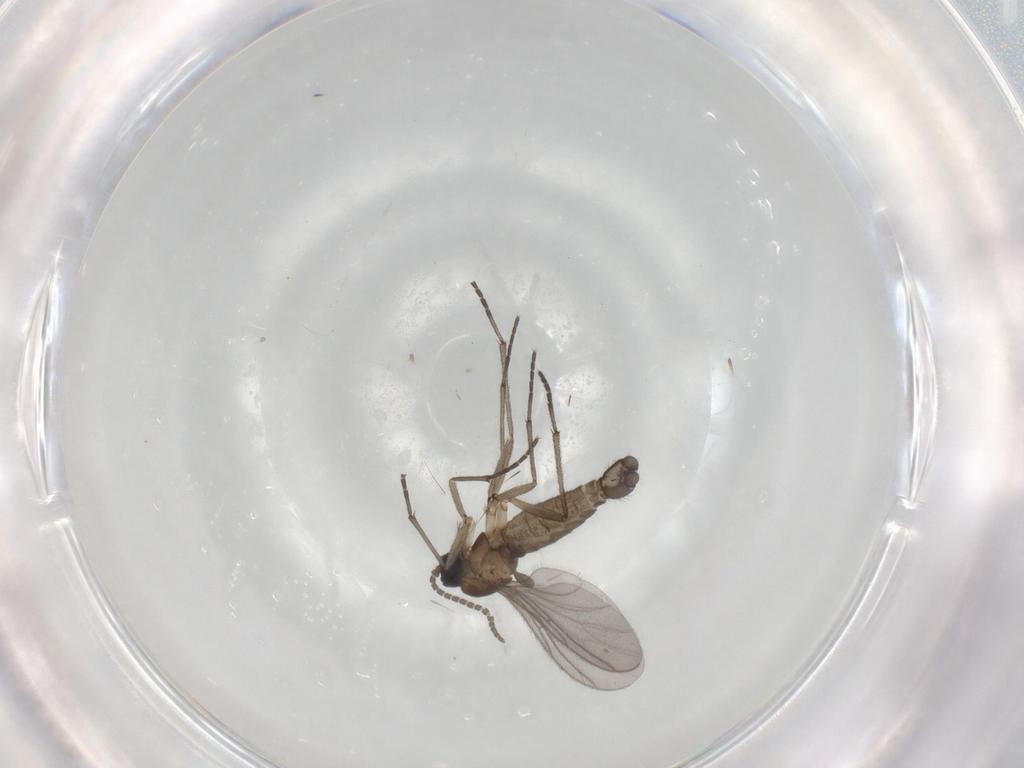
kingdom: Animalia
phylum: Arthropoda
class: Insecta
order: Diptera
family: Sciaridae
